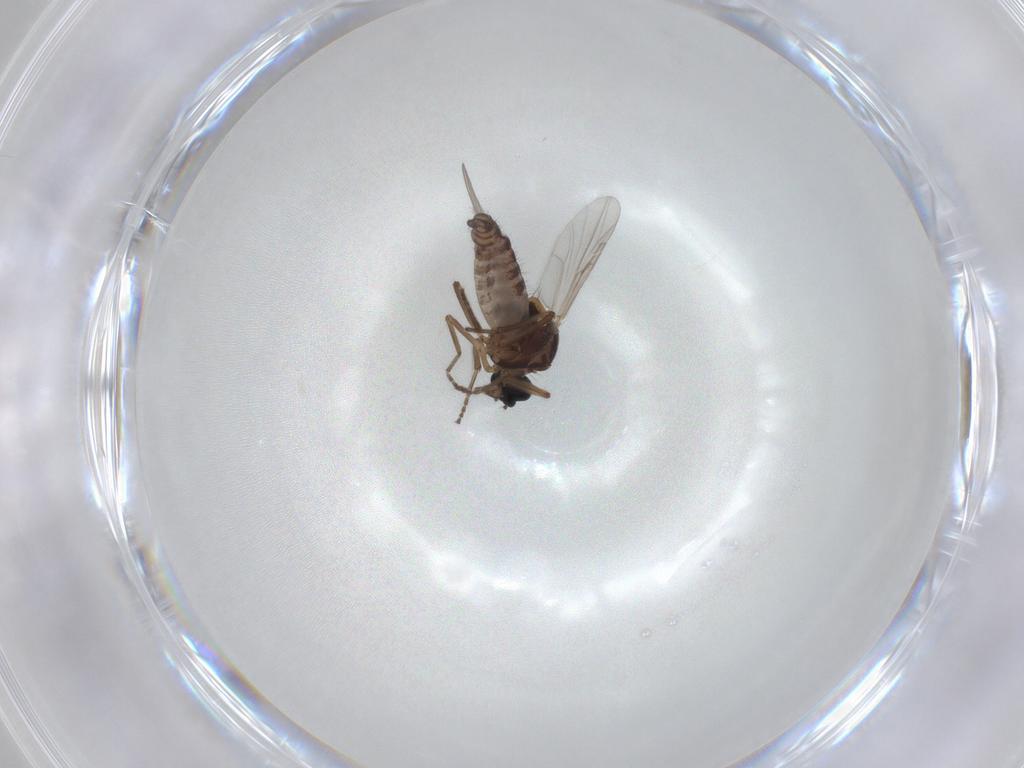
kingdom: Animalia
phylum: Arthropoda
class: Insecta
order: Diptera
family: Ceratopogonidae
